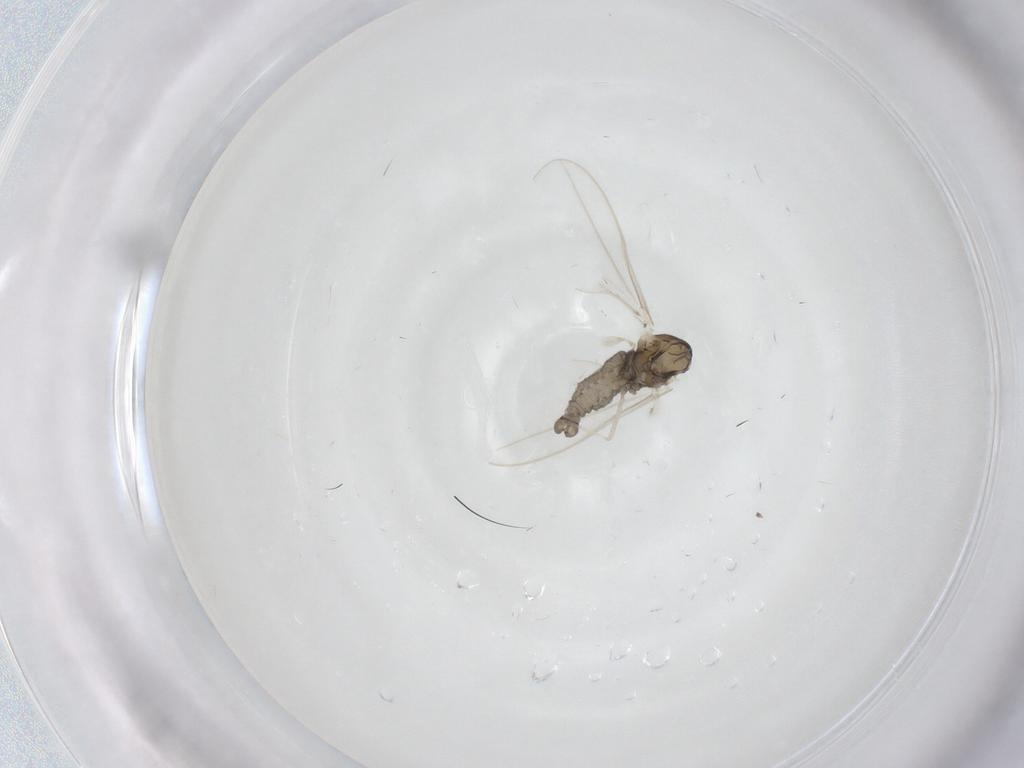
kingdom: Animalia
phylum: Arthropoda
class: Insecta
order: Diptera
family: Cecidomyiidae
